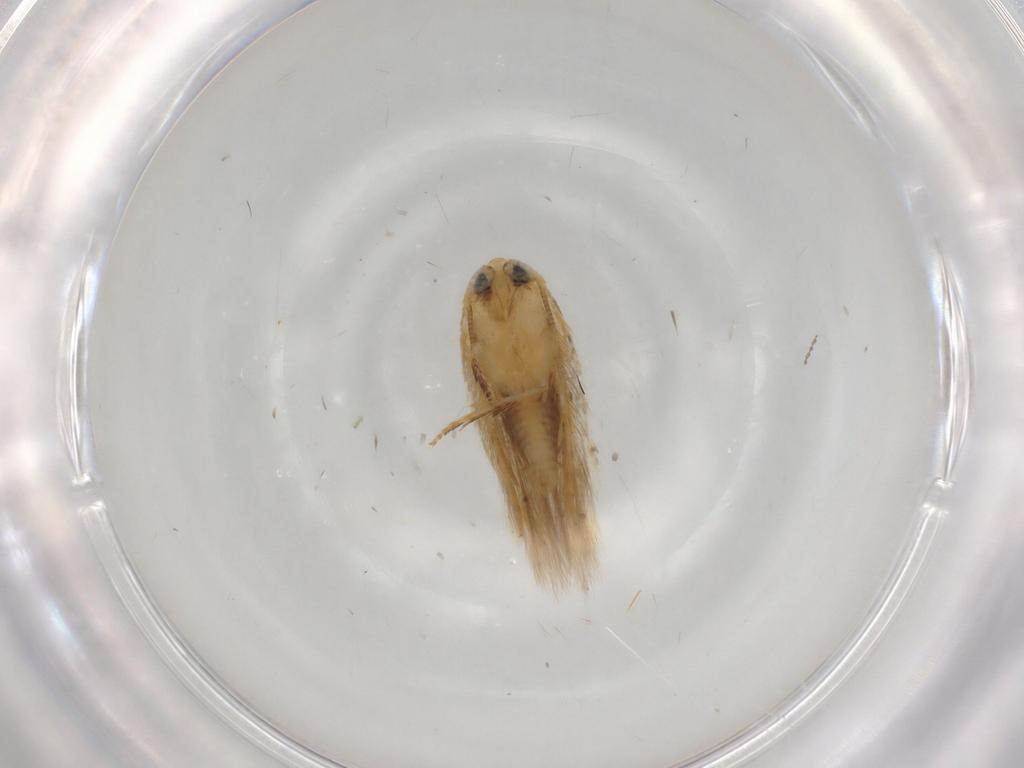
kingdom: Animalia
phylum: Arthropoda
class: Insecta
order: Lepidoptera
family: Opostegidae
